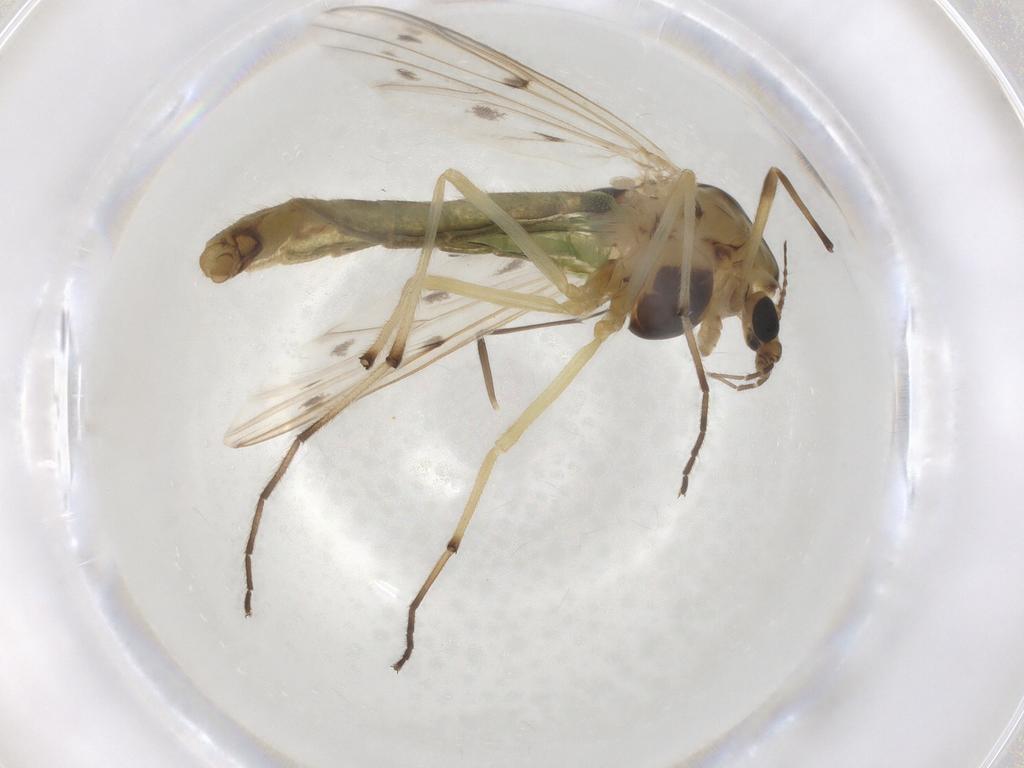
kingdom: Animalia
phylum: Arthropoda
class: Insecta
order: Diptera
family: Chironomidae
